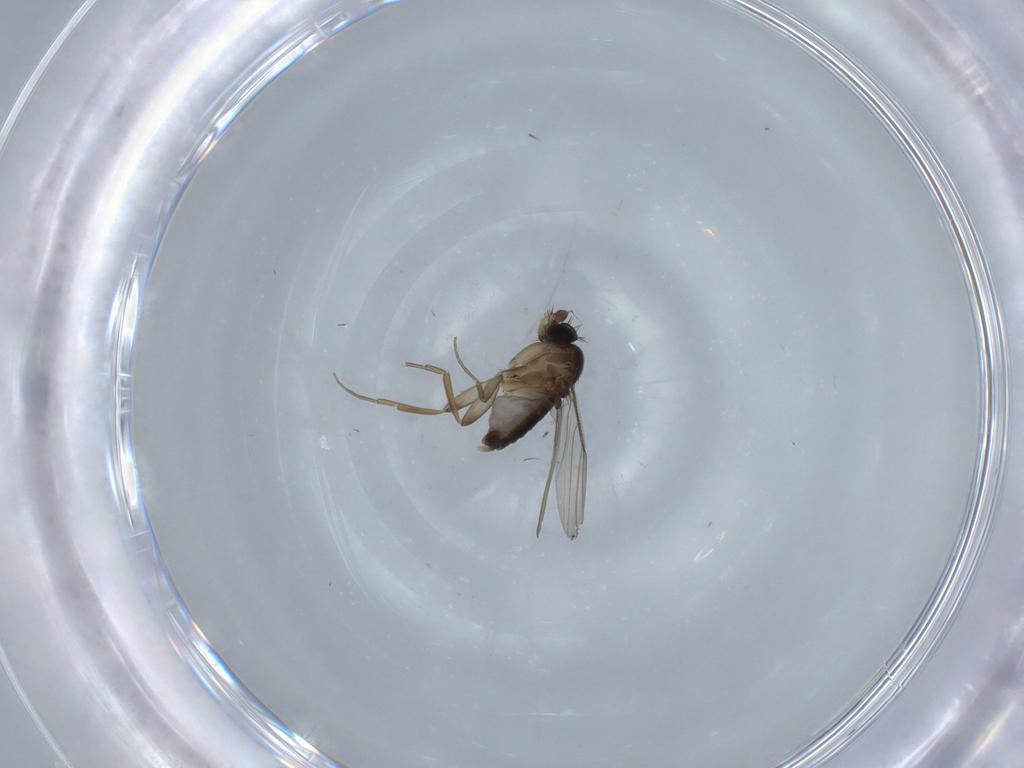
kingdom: Animalia
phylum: Arthropoda
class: Insecta
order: Diptera
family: Phoridae
